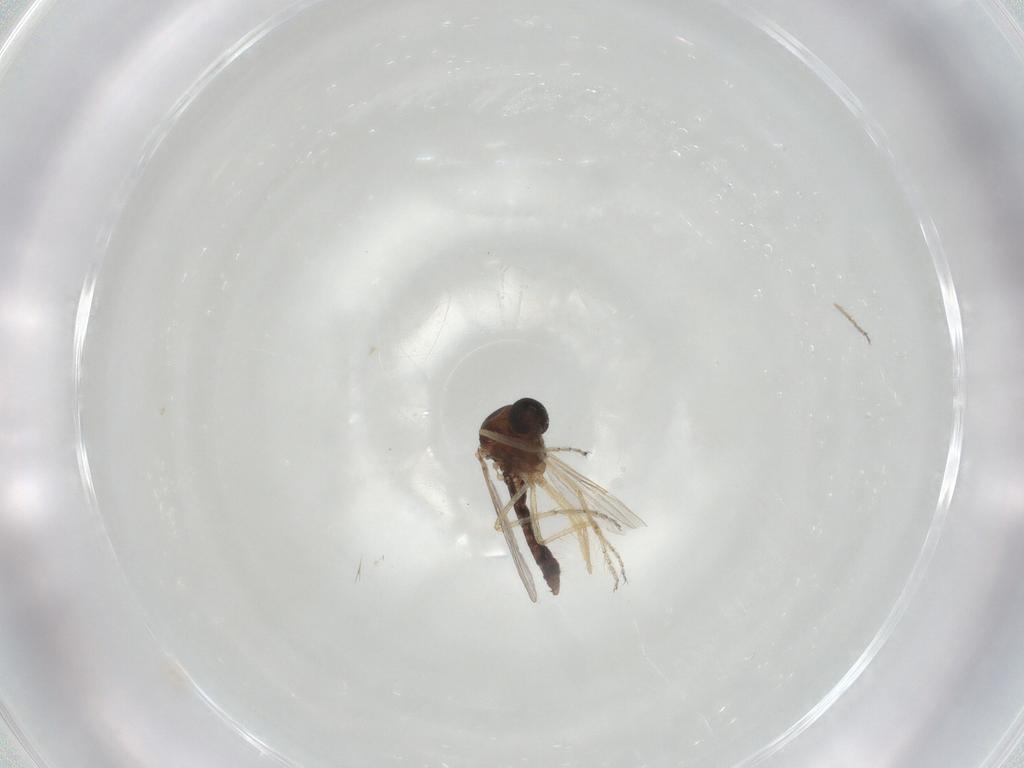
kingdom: Animalia
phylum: Arthropoda
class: Insecta
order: Diptera
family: Ceratopogonidae
